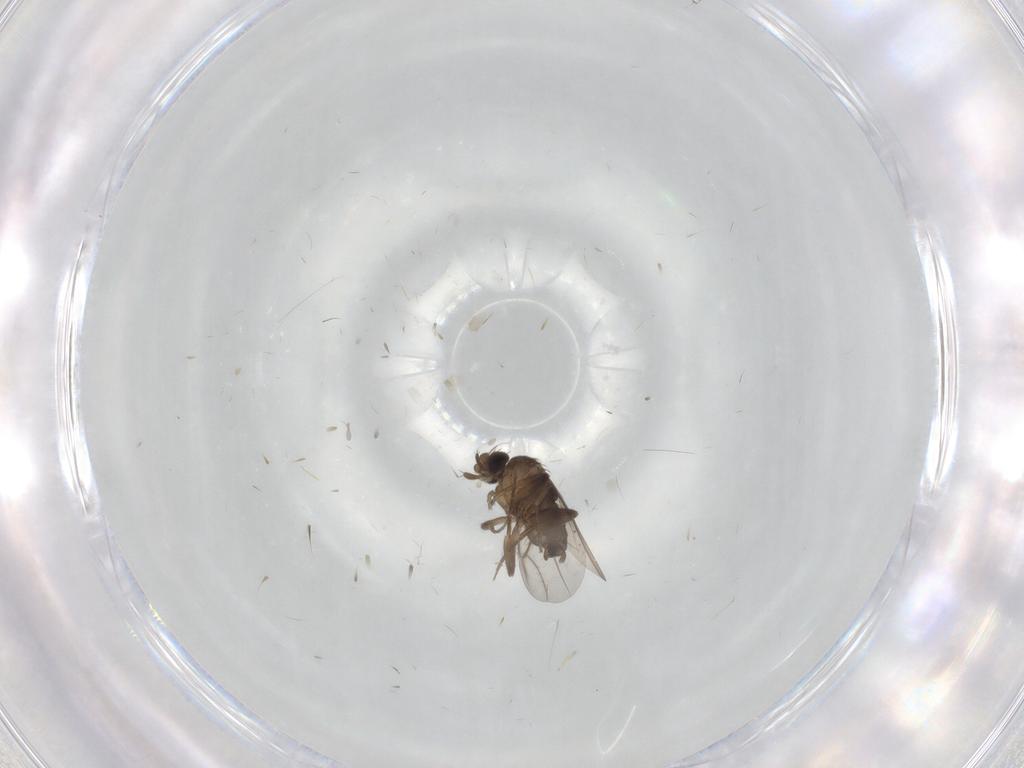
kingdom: Animalia
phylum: Arthropoda
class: Insecta
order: Diptera
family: Phoridae
